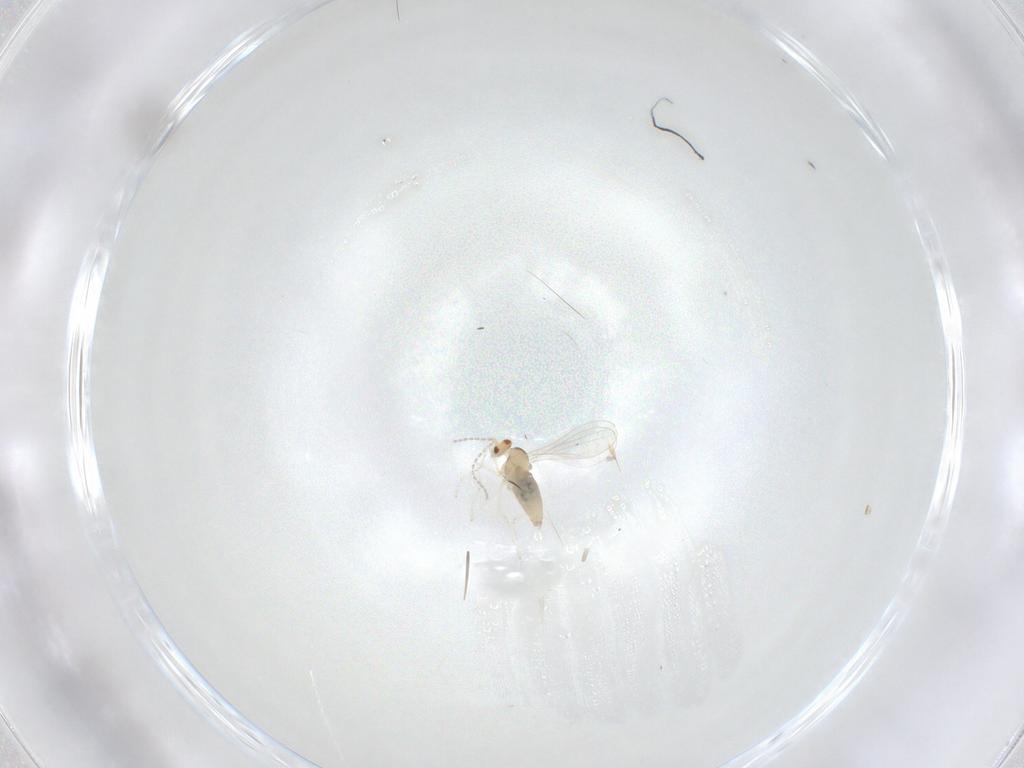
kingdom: Animalia
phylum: Arthropoda
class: Insecta
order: Diptera
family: Cecidomyiidae
